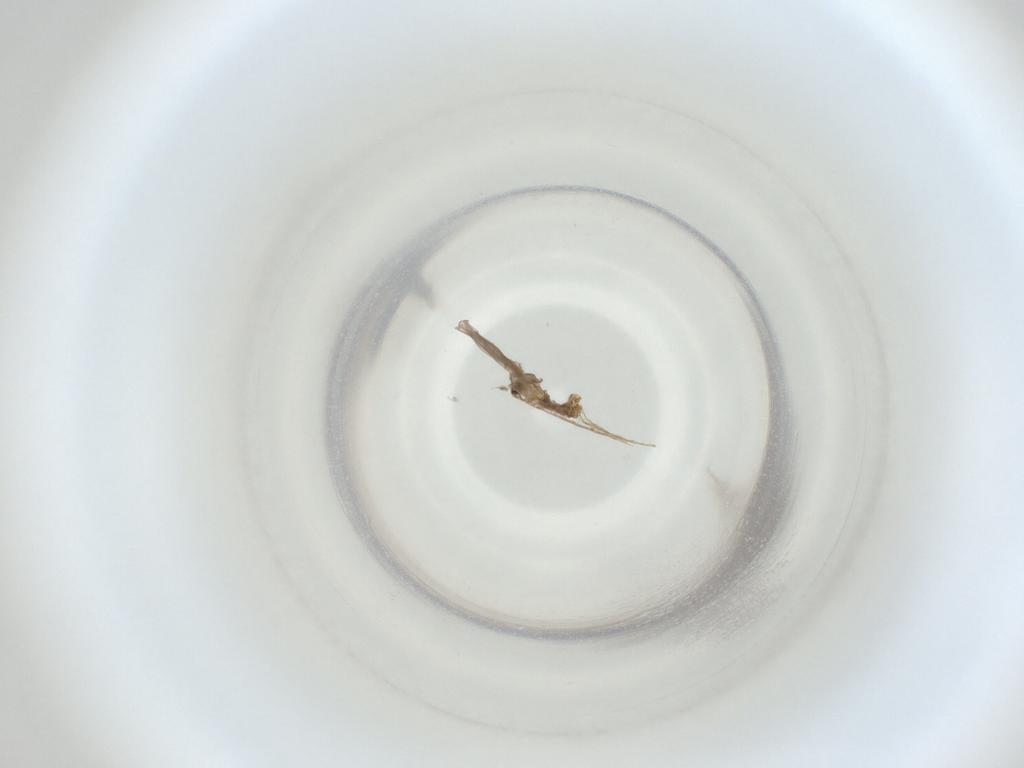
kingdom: Animalia
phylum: Arthropoda
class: Insecta
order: Diptera
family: Cecidomyiidae
